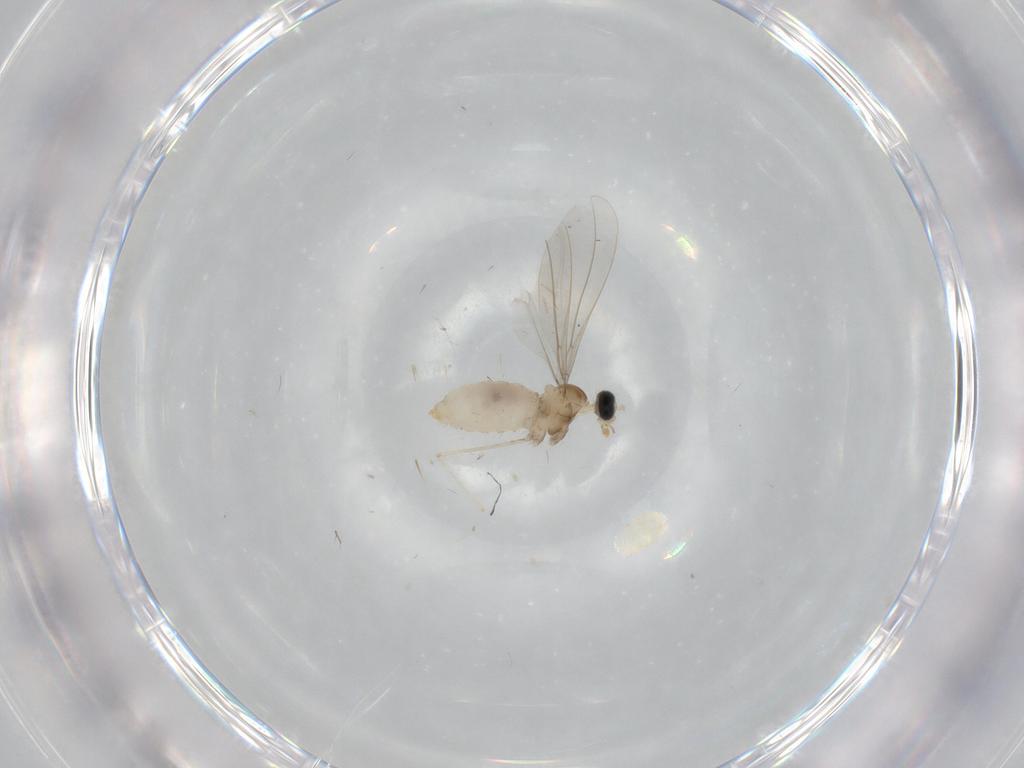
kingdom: Animalia
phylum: Arthropoda
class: Insecta
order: Diptera
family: Cecidomyiidae
